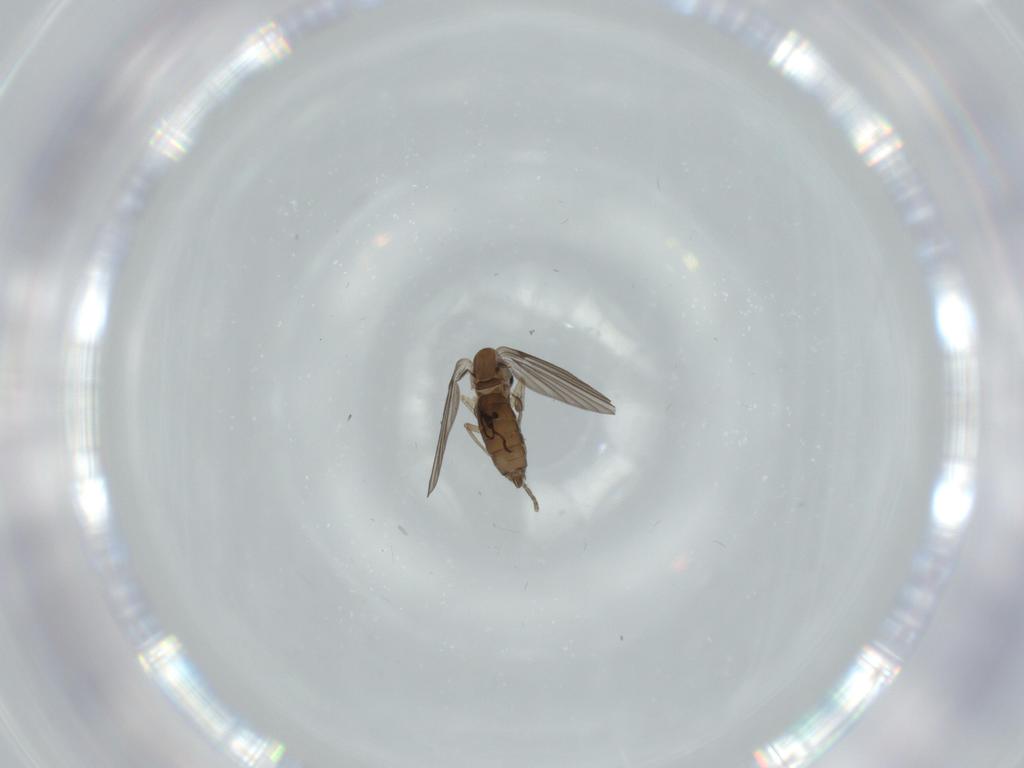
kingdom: Animalia
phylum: Arthropoda
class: Insecta
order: Diptera
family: Psychodidae
